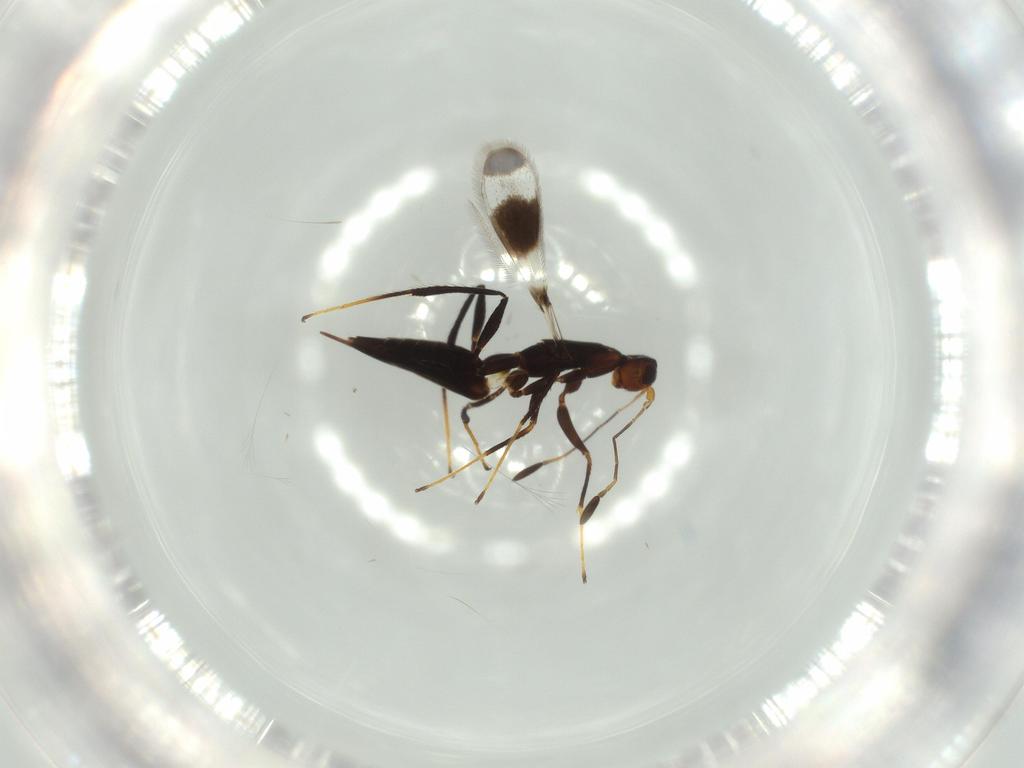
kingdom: Animalia
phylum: Arthropoda
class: Insecta
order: Hymenoptera
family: Mymaridae
